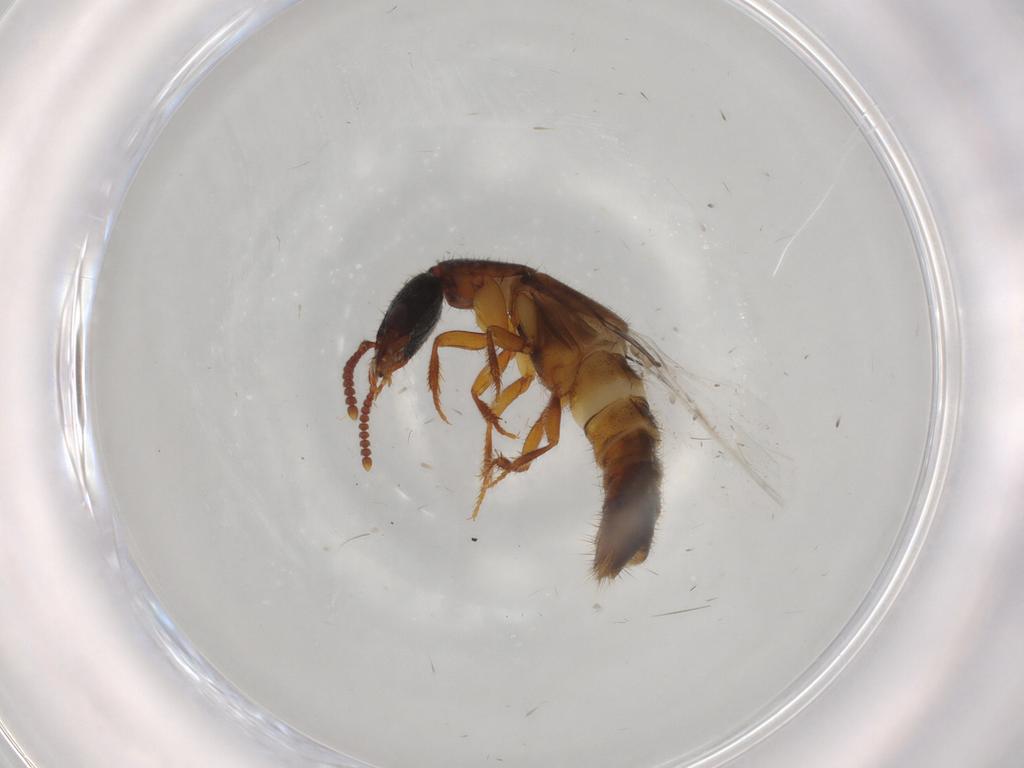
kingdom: Animalia
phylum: Arthropoda
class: Insecta
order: Coleoptera
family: Staphylinidae
